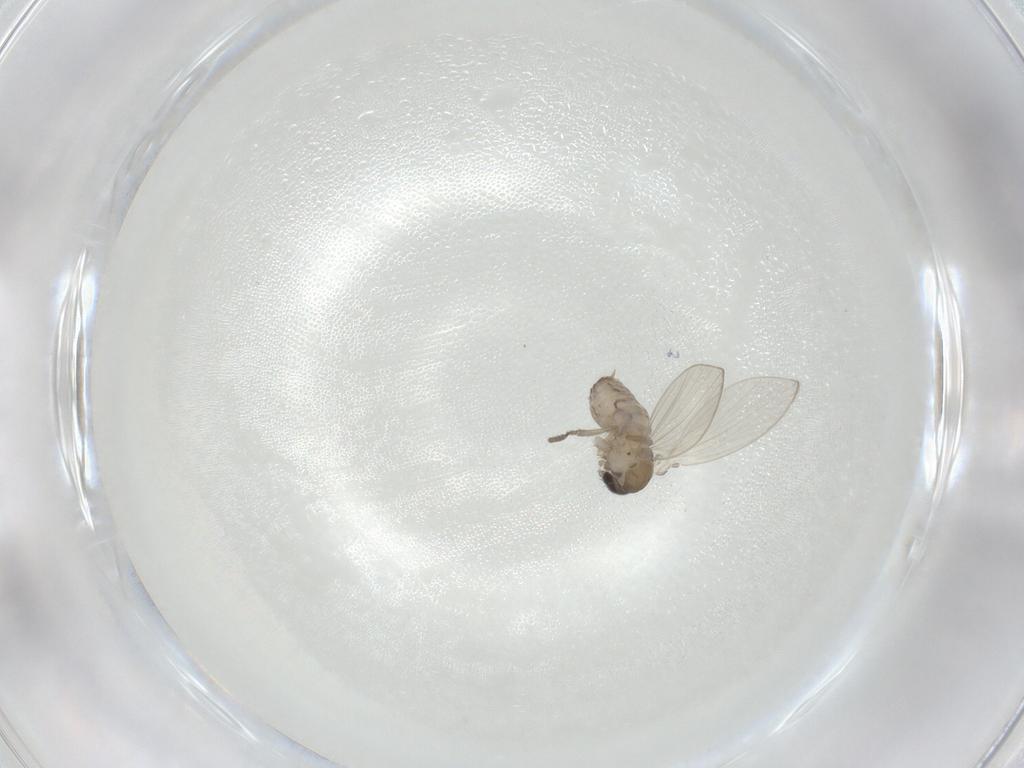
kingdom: Animalia
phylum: Arthropoda
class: Insecta
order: Diptera
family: Psychodidae
